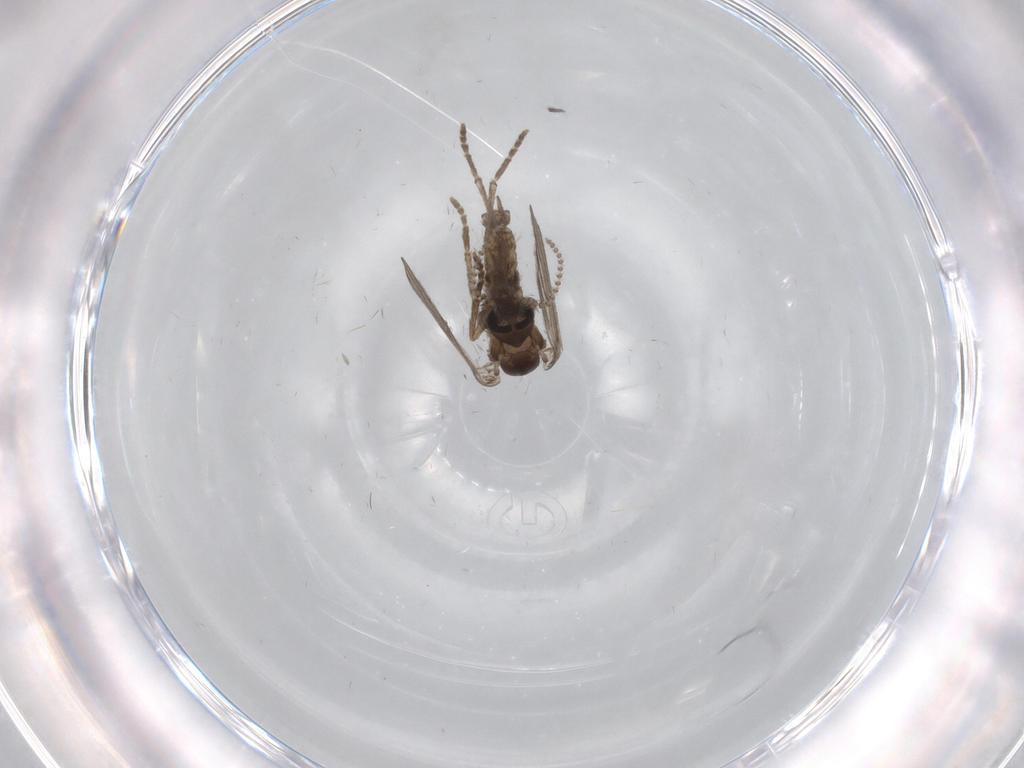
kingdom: Animalia
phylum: Arthropoda
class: Insecta
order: Diptera
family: Psychodidae
